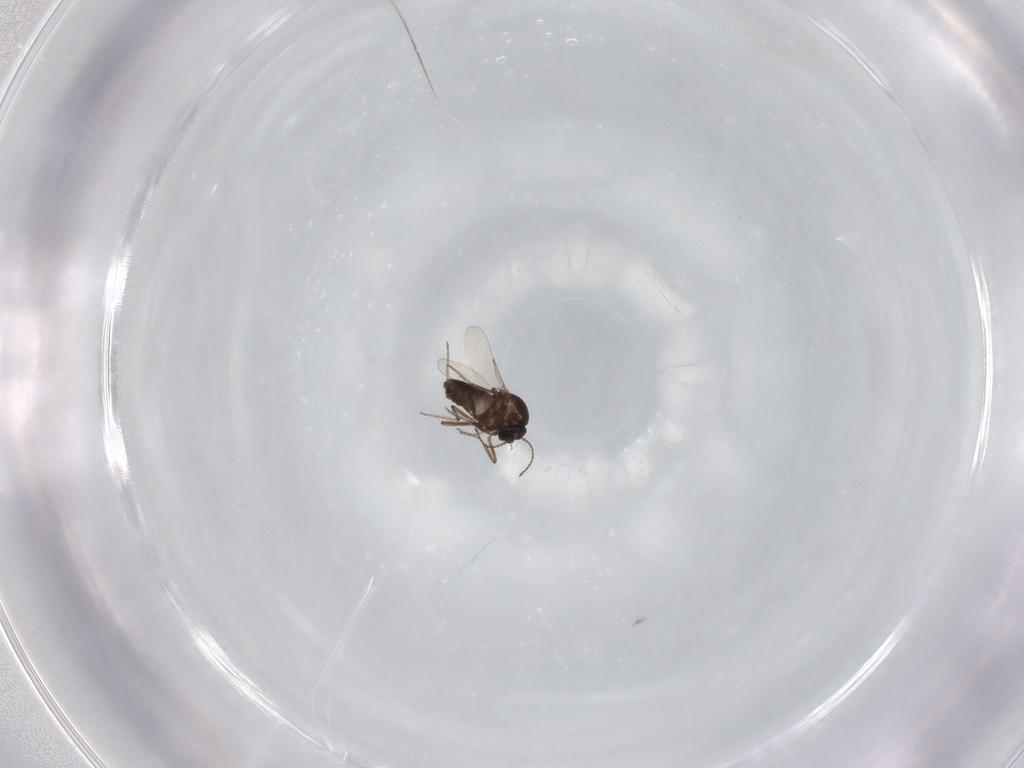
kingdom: Animalia
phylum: Arthropoda
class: Insecta
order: Diptera
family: Ceratopogonidae
